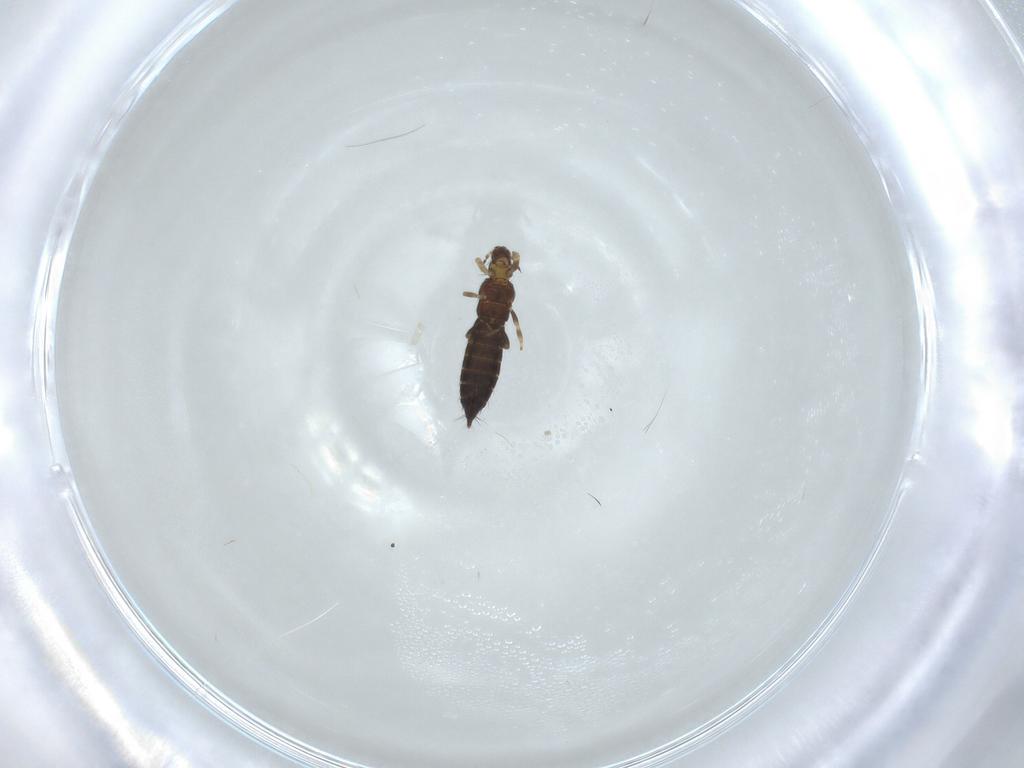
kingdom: Animalia
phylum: Arthropoda
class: Insecta
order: Thysanoptera
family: Thripidae
